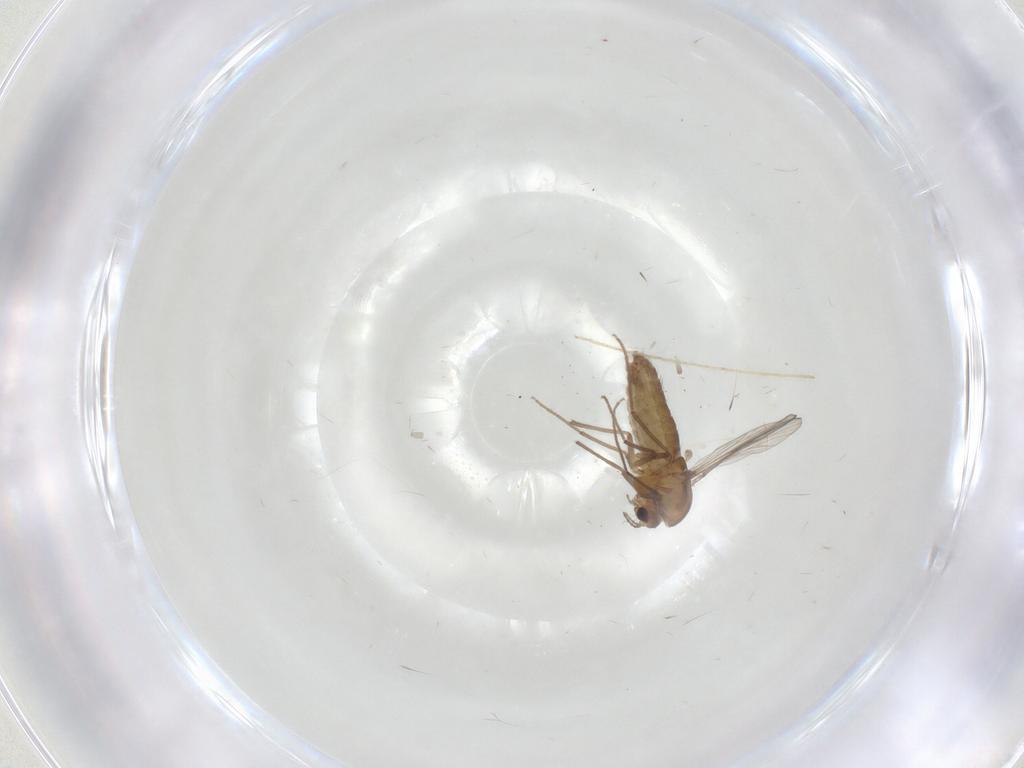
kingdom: Animalia
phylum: Arthropoda
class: Insecta
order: Diptera
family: Chironomidae
